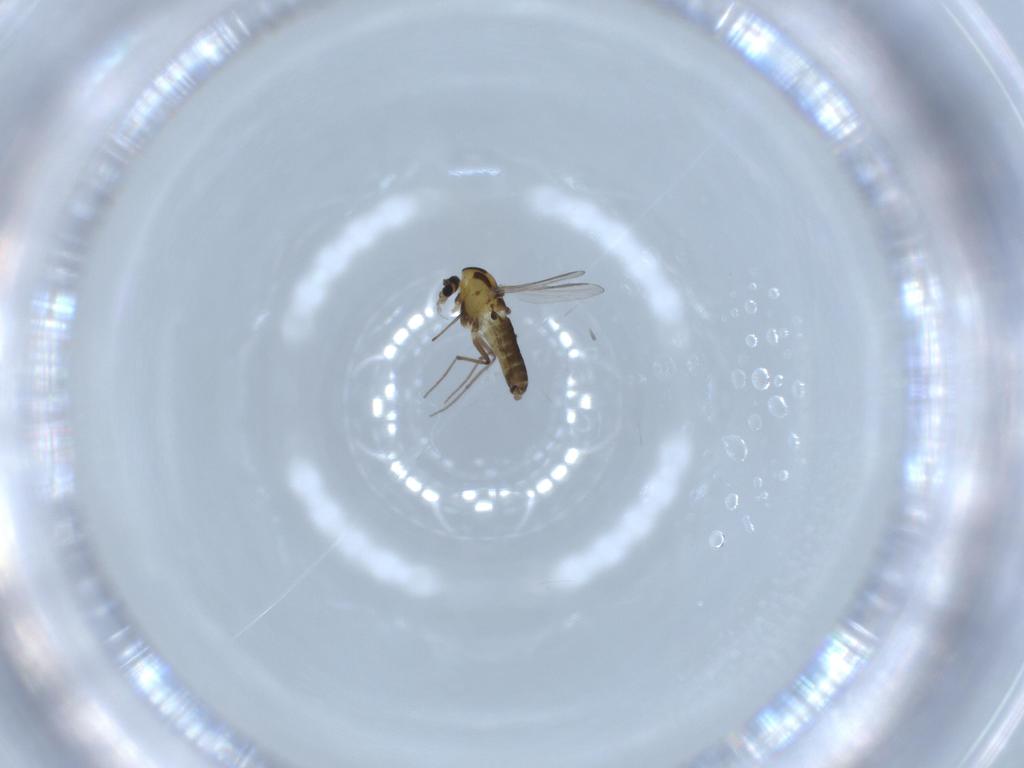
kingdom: Animalia
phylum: Arthropoda
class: Insecta
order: Diptera
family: Chironomidae
